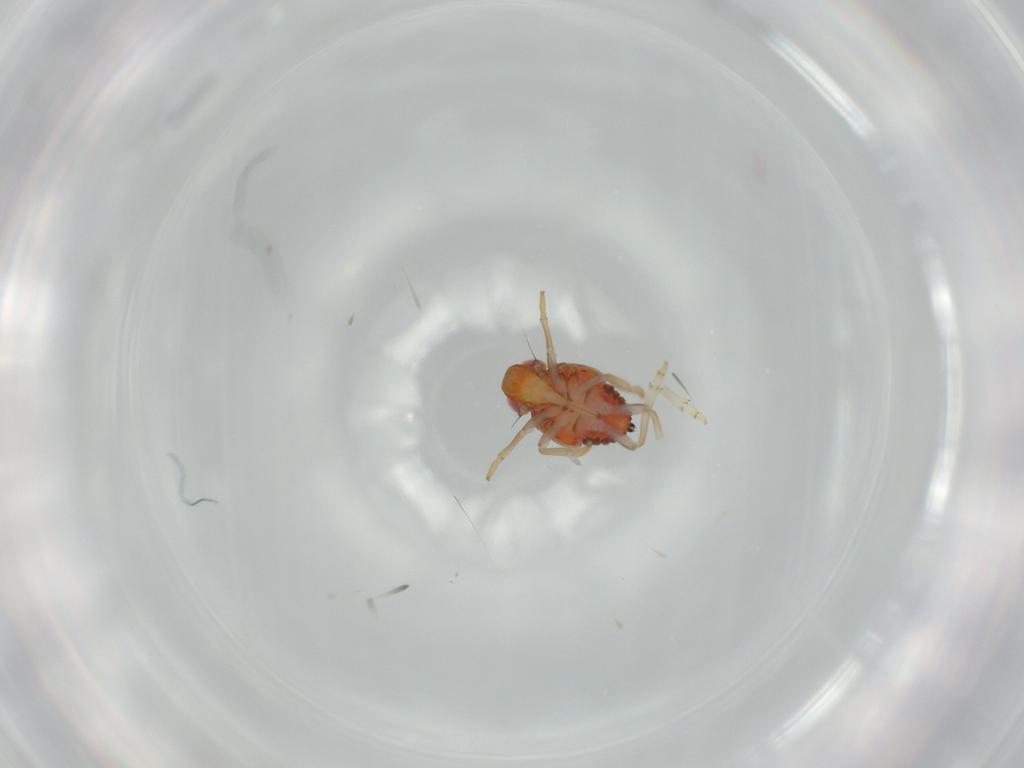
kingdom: Animalia
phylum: Arthropoda
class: Insecta
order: Hemiptera
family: Issidae
